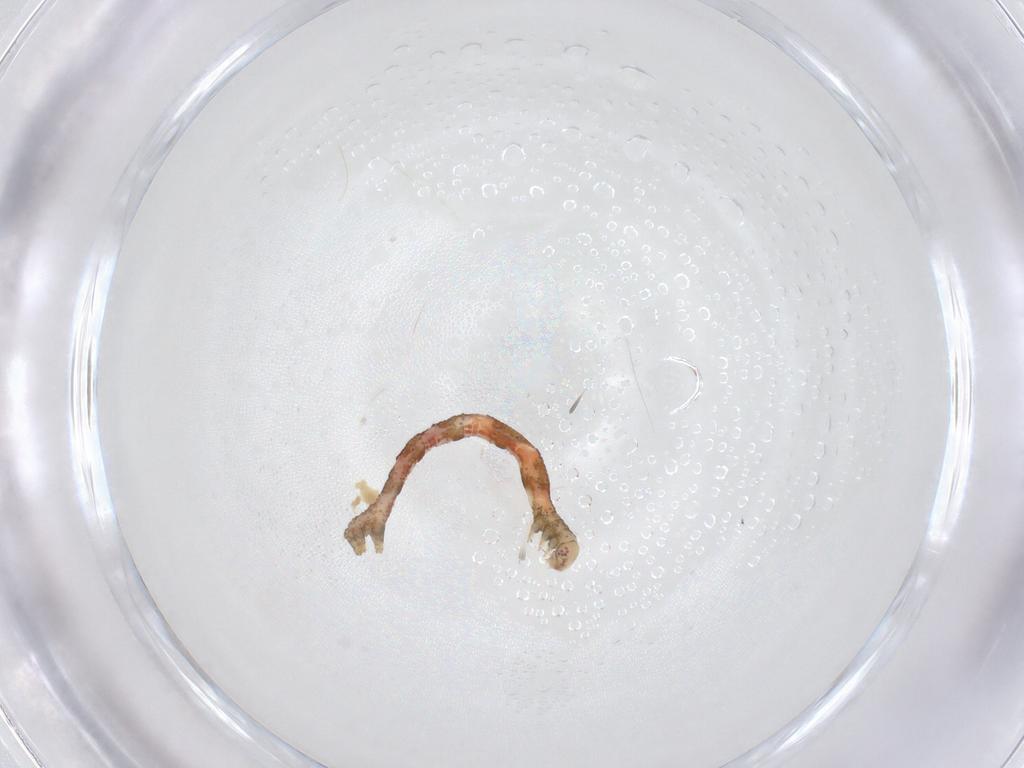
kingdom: Animalia
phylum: Arthropoda
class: Insecta
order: Lepidoptera
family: Geometridae
